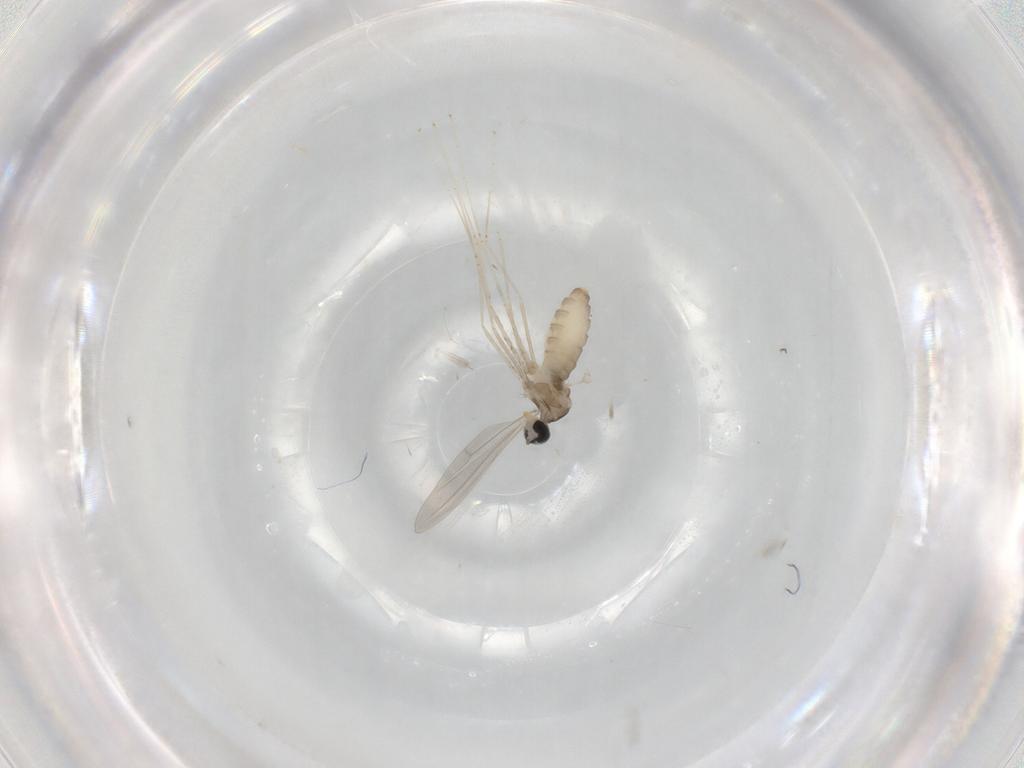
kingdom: Animalia
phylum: Arthropoda
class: Insecta
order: Diptera
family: Cecidomyiidae
